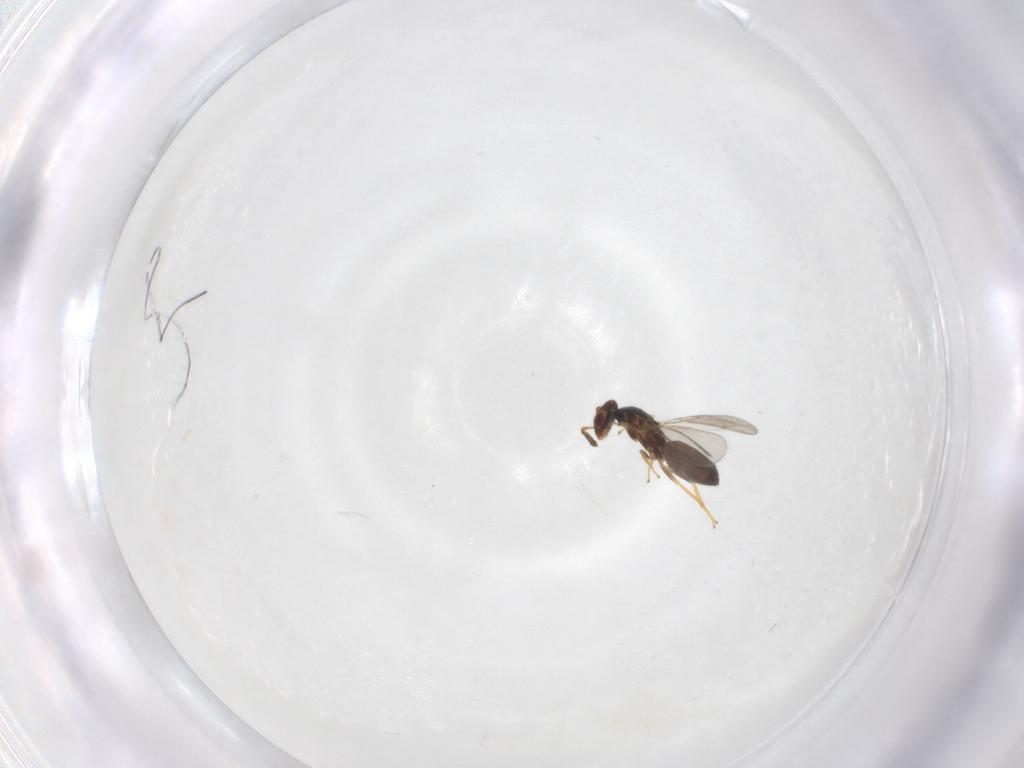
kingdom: Animalia
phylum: Arthropoda
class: Insecta
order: Hymenoptera
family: Eulophidae
